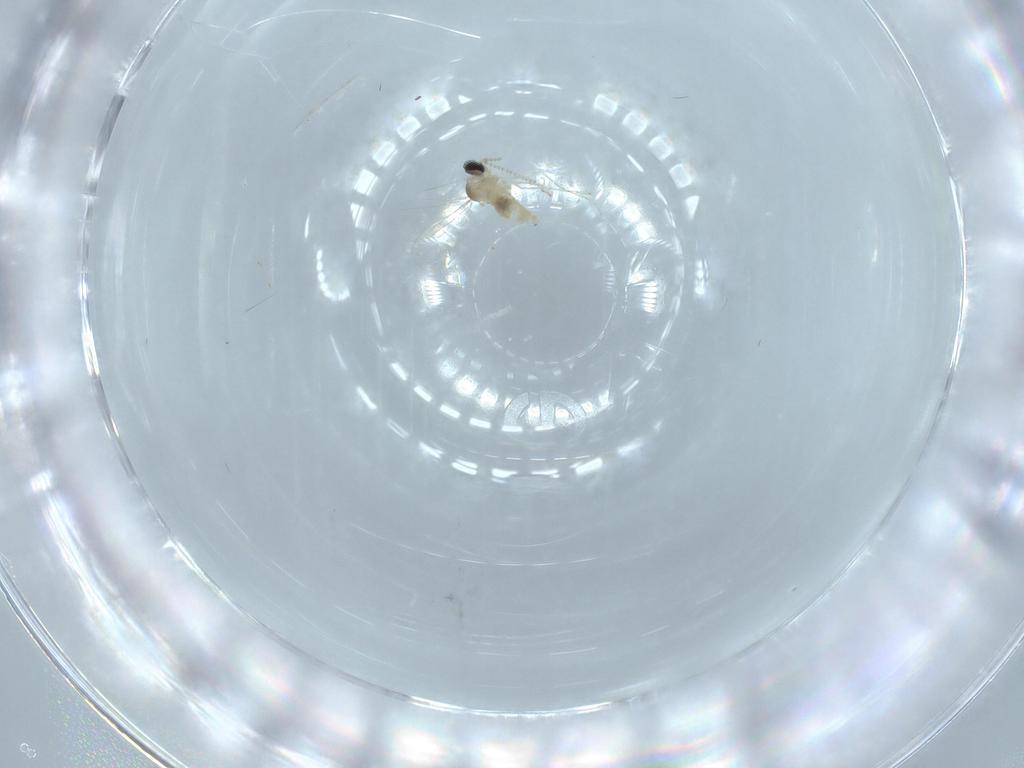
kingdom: Animalia
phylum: Arthropoda
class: Insecta
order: Diptera
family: Cecidomyiidae
